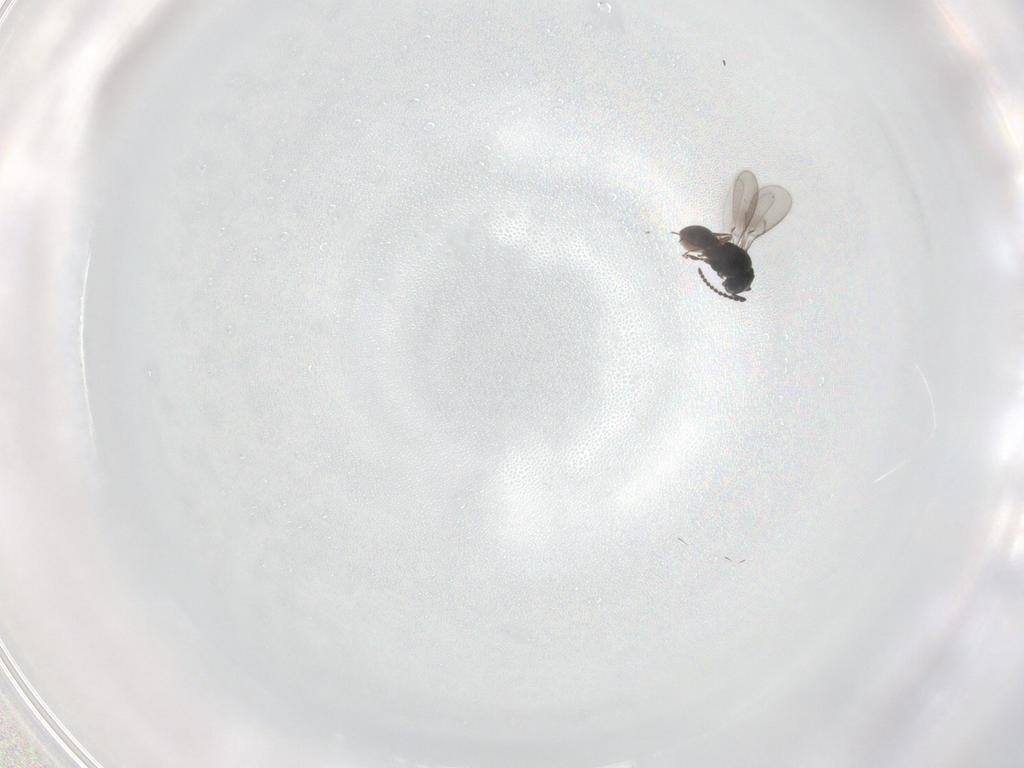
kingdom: Animalia
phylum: Arthropoda
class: Insecta
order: Hymenoptera
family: Scelionidae
